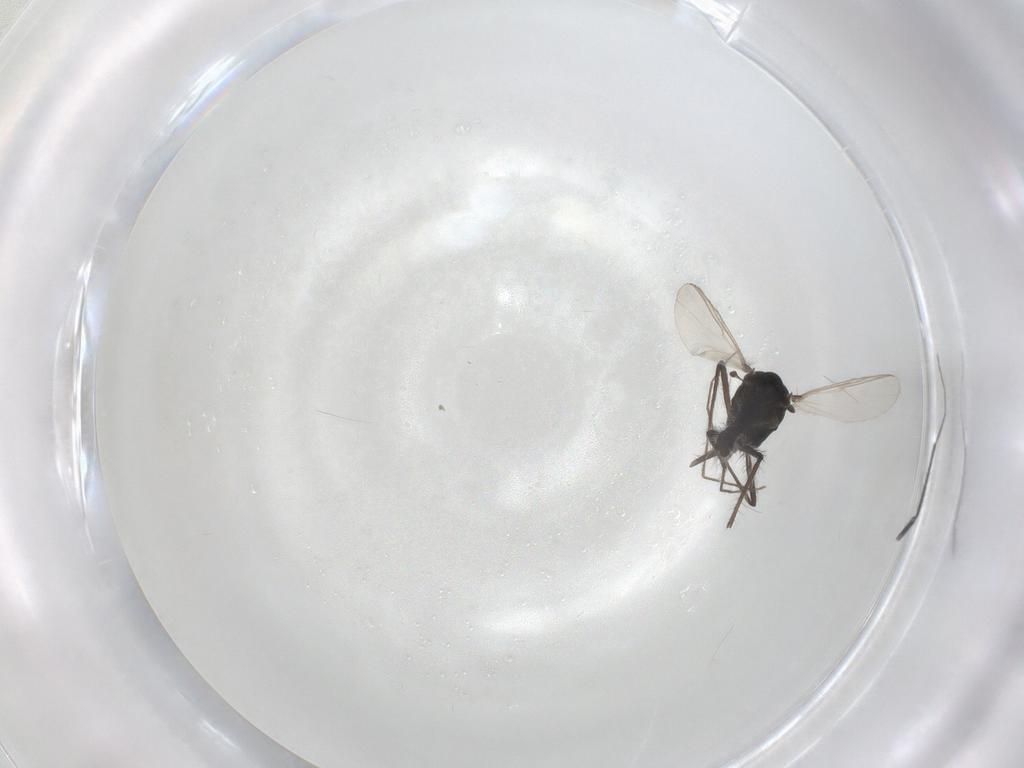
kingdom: Animalia
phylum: Arthropoda
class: Insecta
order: Diptera
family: Chironomidae
